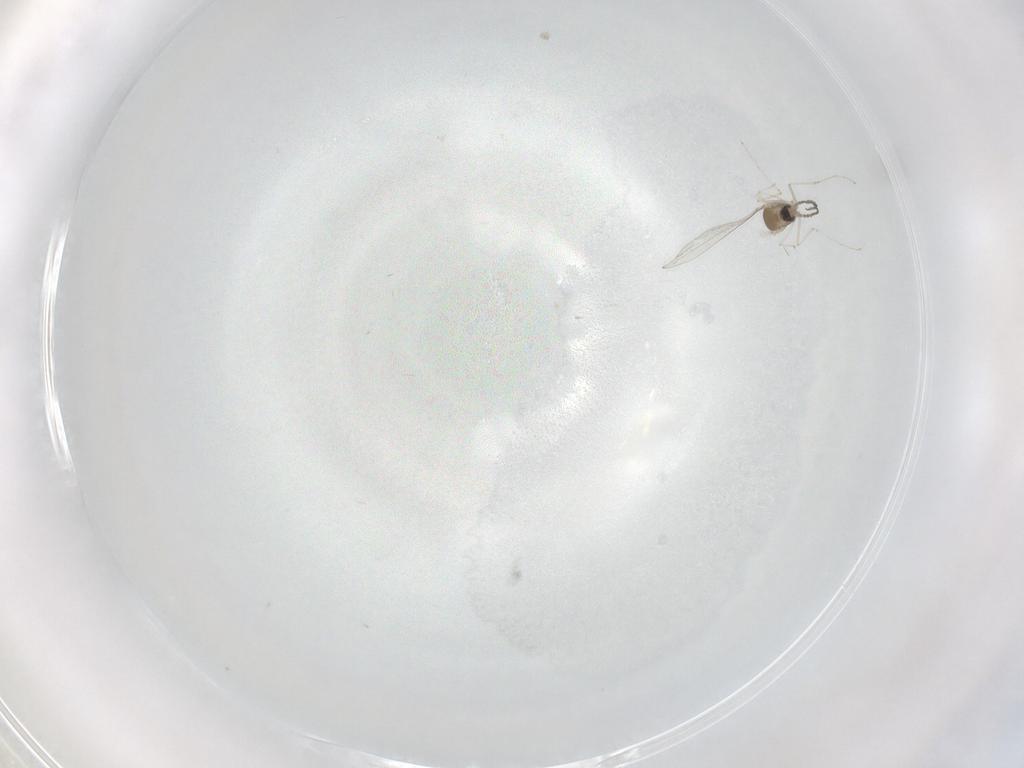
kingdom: Animalia
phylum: Arthropoda
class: Insecta
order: Diptera
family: Cecidomyiidae
